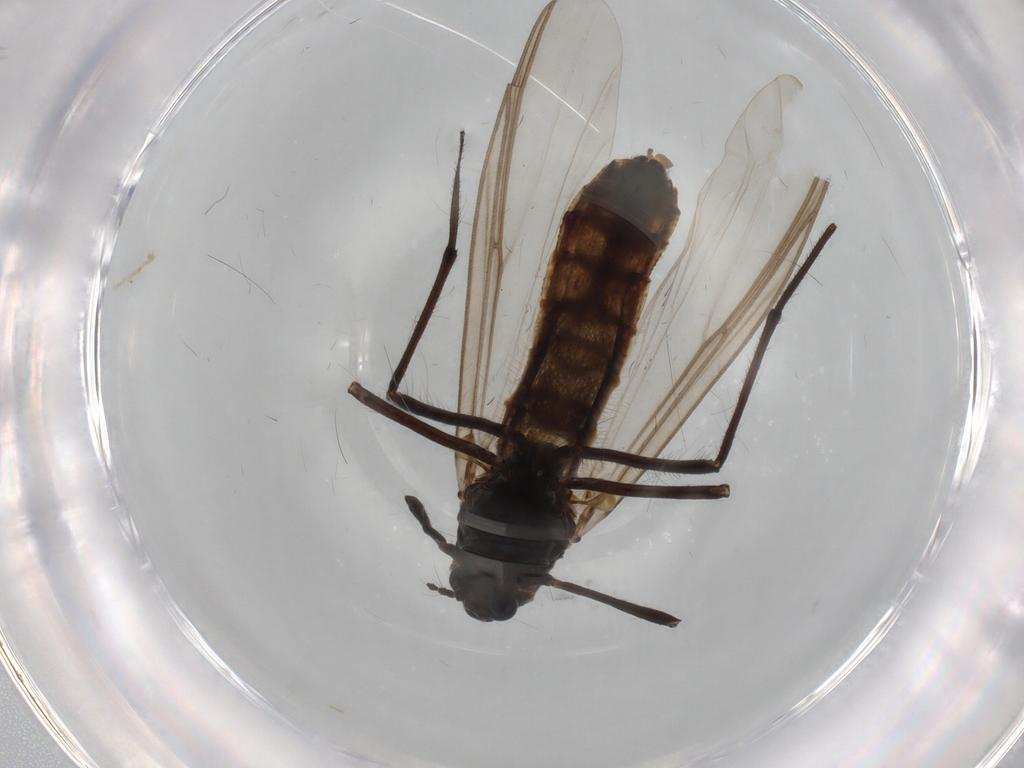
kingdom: Animalia
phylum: Arthropoda
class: Insecta
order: Diptera
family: Chironomidae
